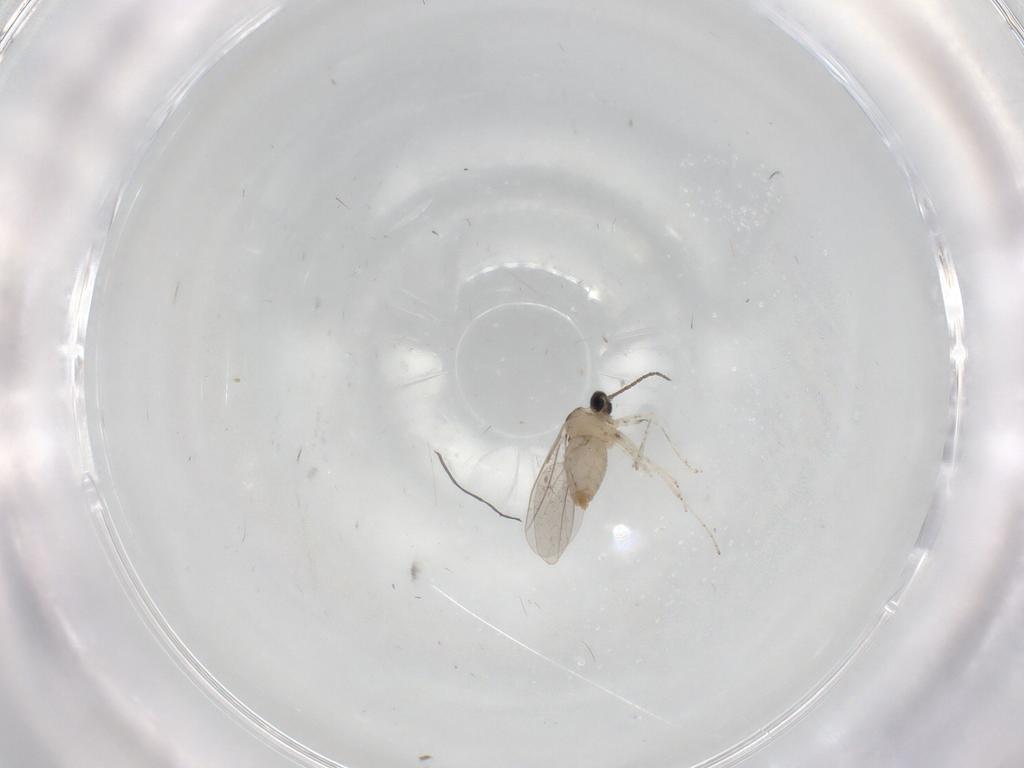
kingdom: Animalia
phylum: Arthropoda
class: Insecta
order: Diptera
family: Cecidomyiidae
